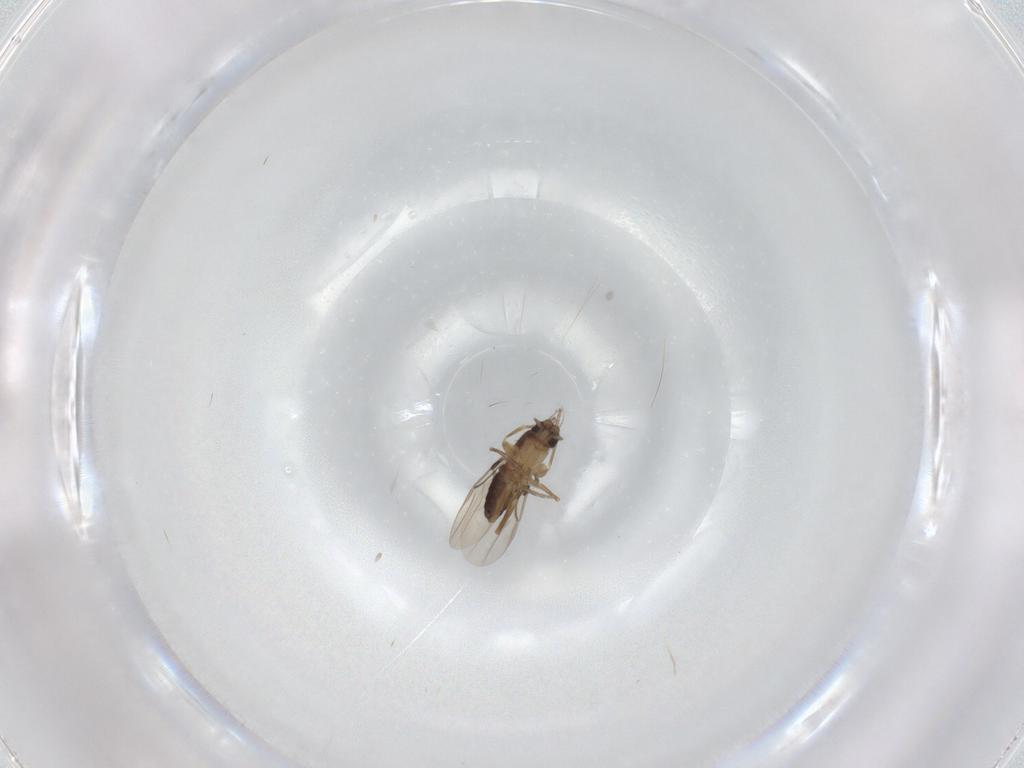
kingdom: Animalia
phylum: Arthropoda
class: Insecta
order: Diptera
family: Phoridae
